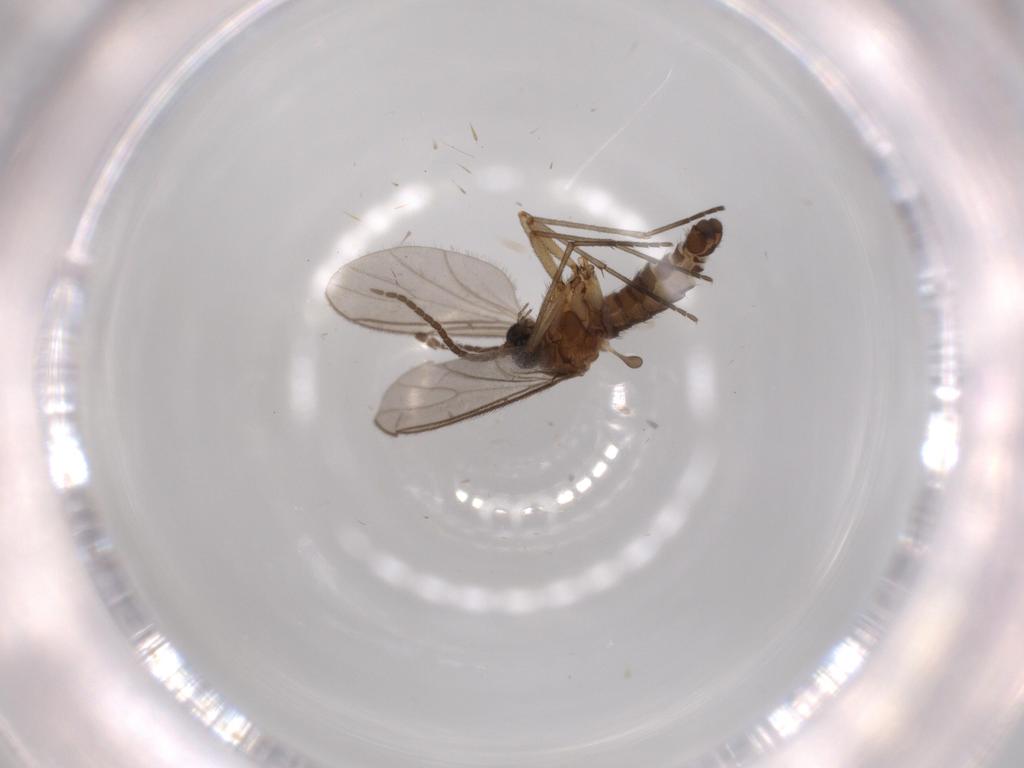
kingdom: Animalia
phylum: Arthropoda
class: Insecta
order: Diptera
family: Sciaridae
